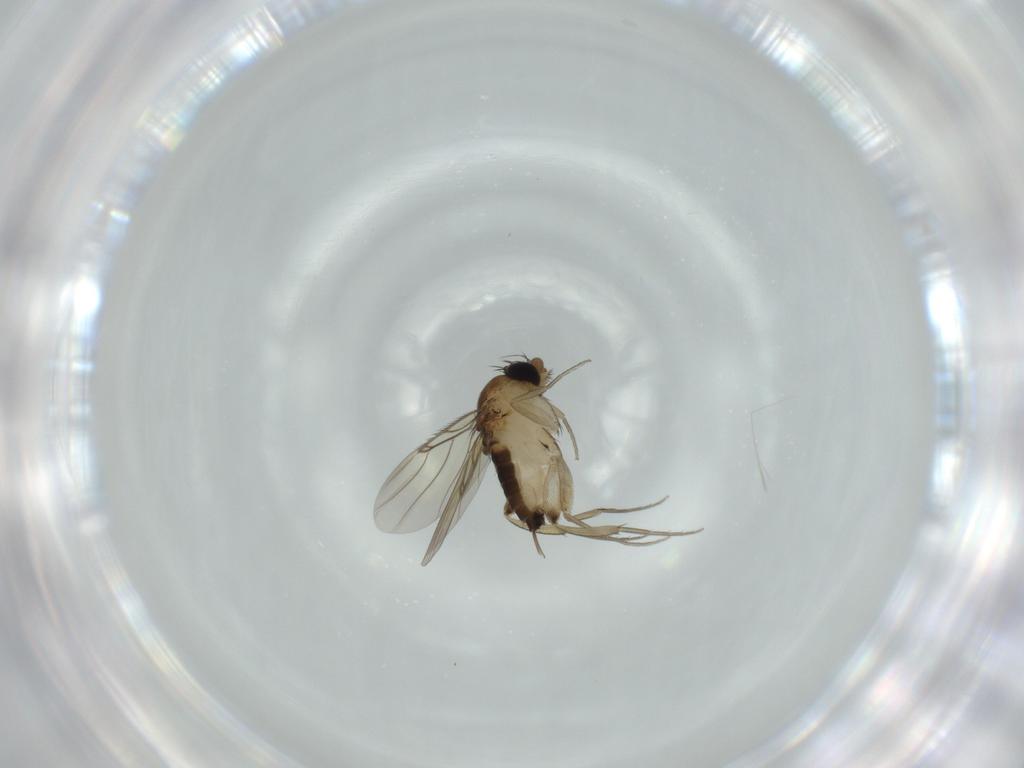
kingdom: Animalia
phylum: Arthropoda
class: Insecta
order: Diptera
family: Phoridae
